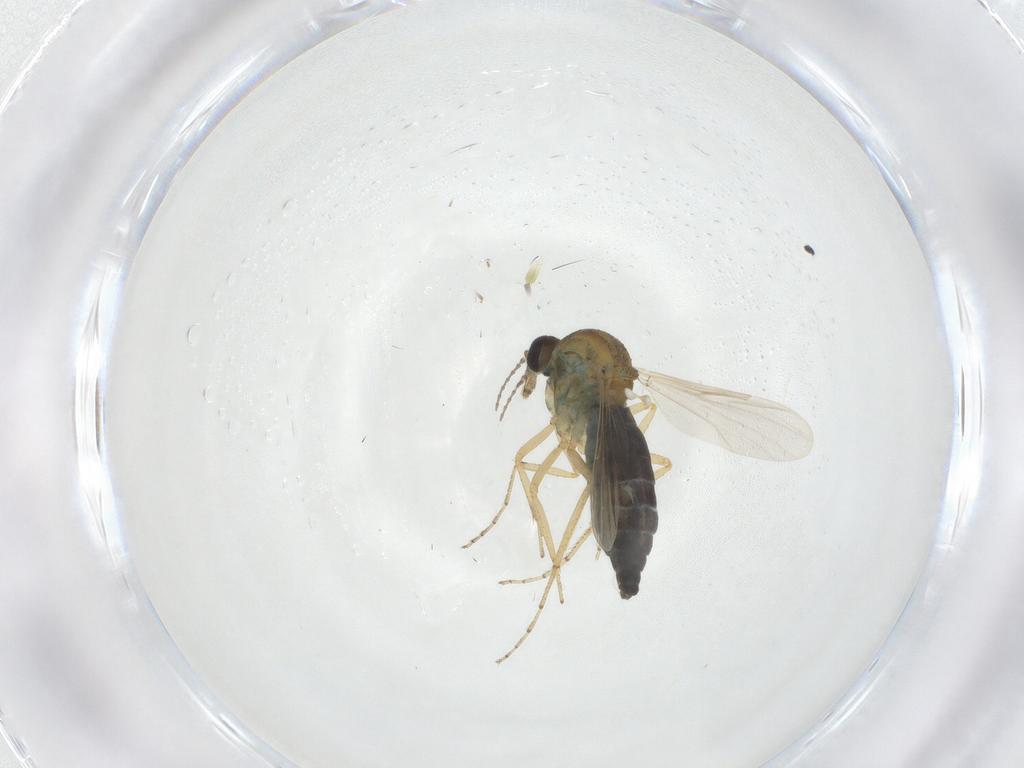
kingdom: Animalia
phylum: Arthropoda
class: Insecta
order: Diptera
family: Ceratopogonidae
